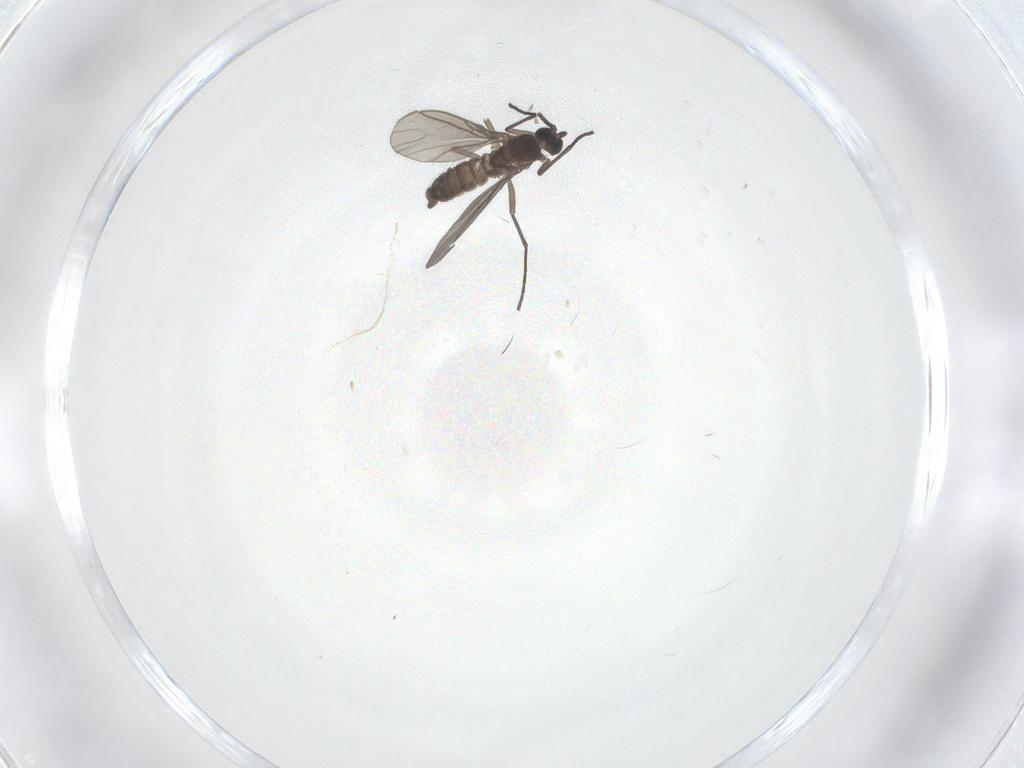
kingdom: Animalia
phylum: Arthropoda
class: Insecta
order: Diptera
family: Sciaridae
